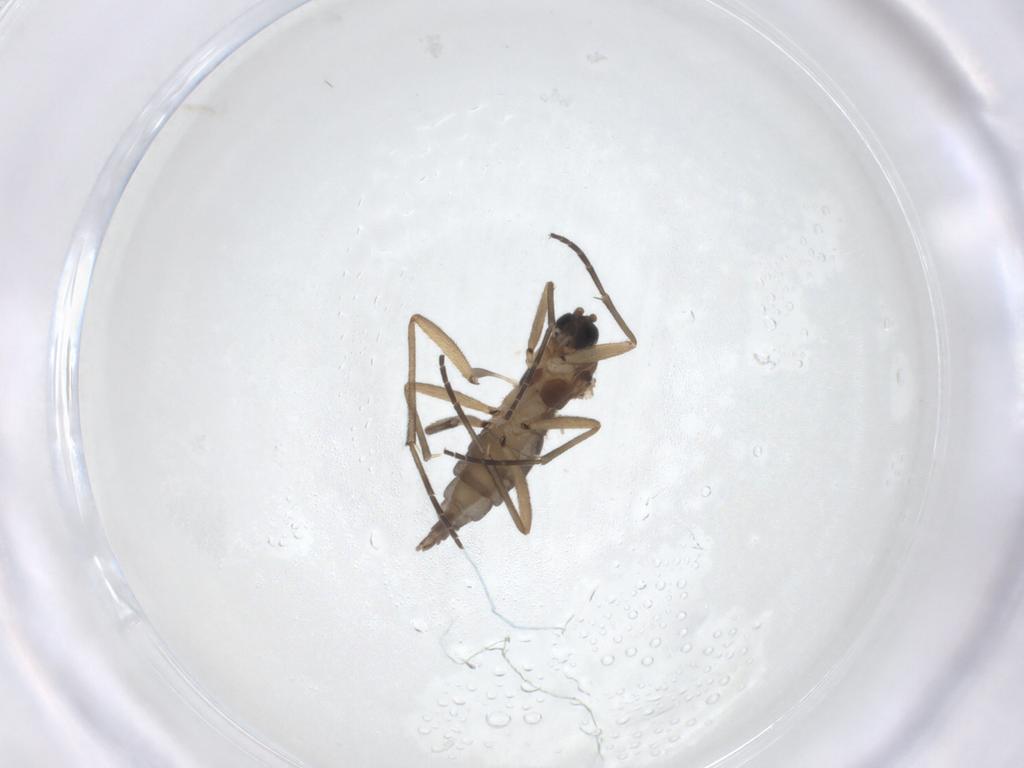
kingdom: Animalia
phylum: Arthropoda
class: Insecta
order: Diptera
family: Sciaridae
